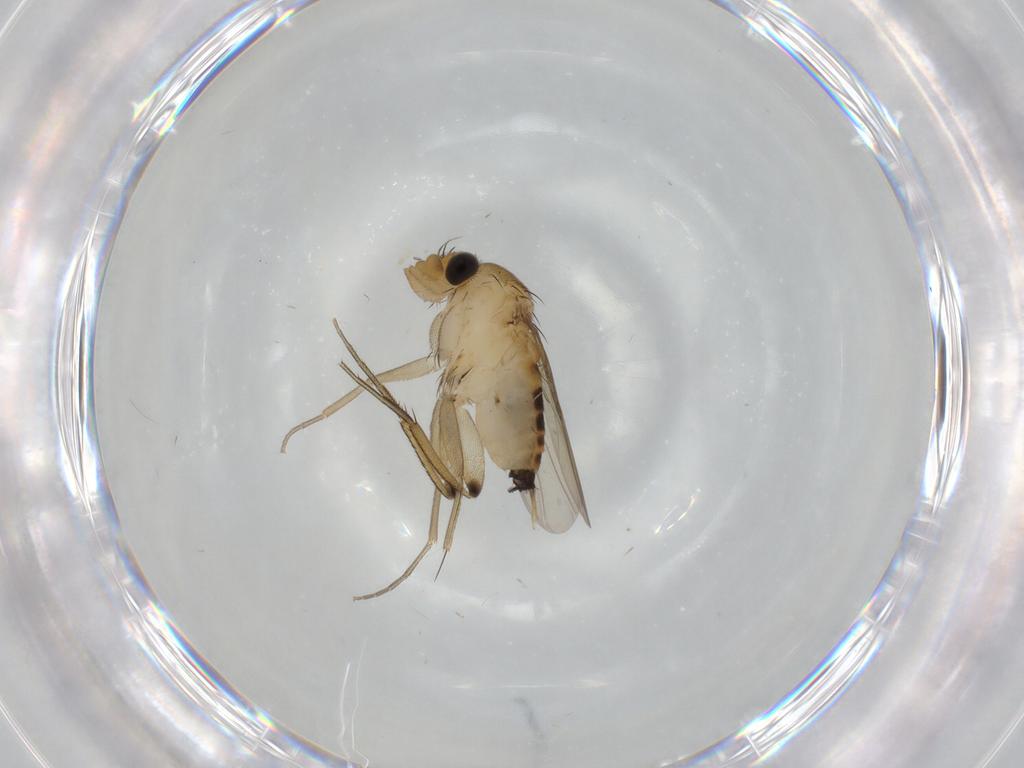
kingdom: Animalia
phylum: Arthropoda
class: Insecta
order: Diptera
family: Phoridae
